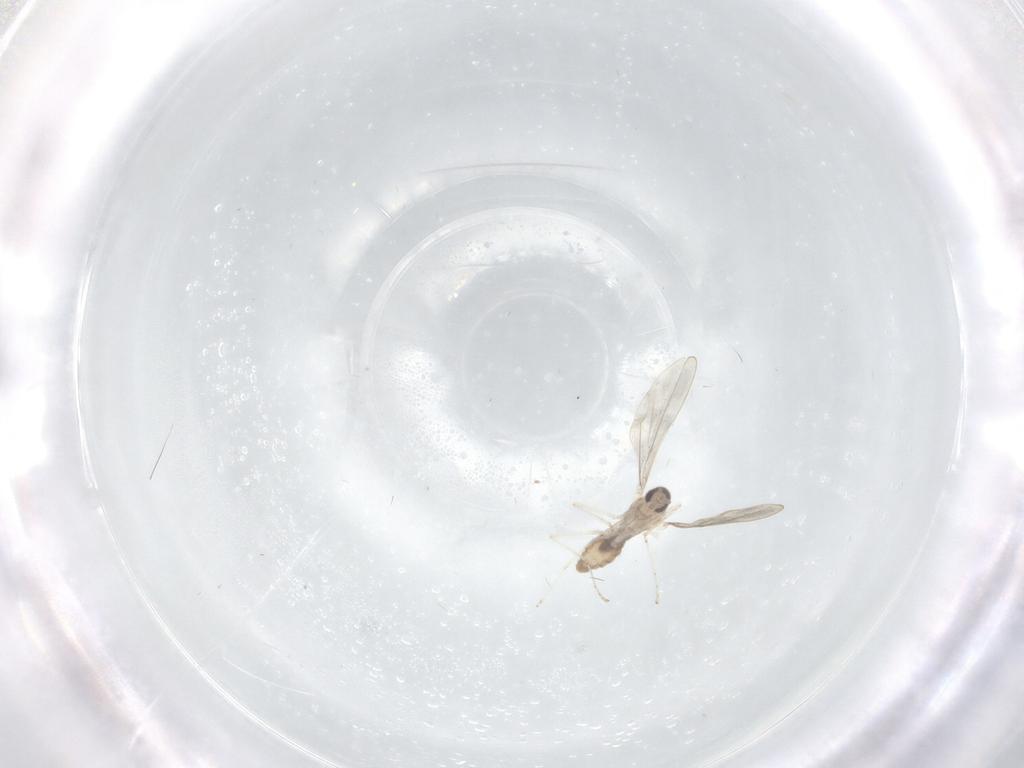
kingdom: Animalia
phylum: Arthropoda
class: Insecta
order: Diptera
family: Cecidomyiidae
